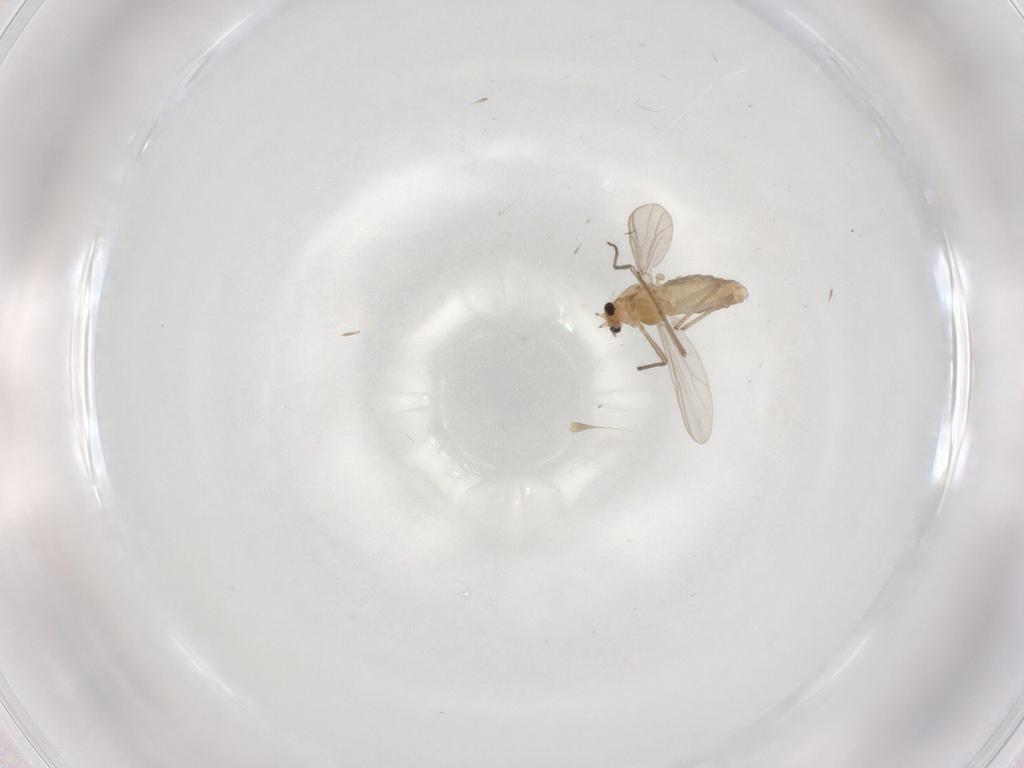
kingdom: Animalia
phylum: Arthropoda
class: Insecta
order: Diptera
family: Chironomidae
